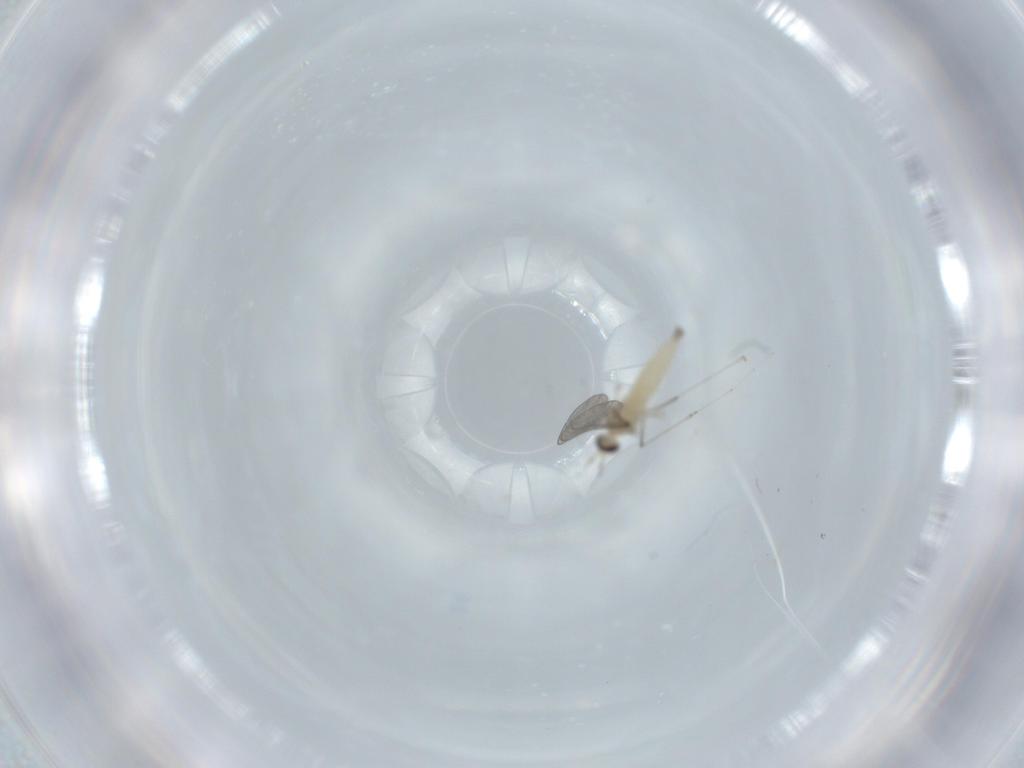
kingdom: Animalia
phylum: Arthropoda
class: Insecta
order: Diptera
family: Cecidomyiidae
